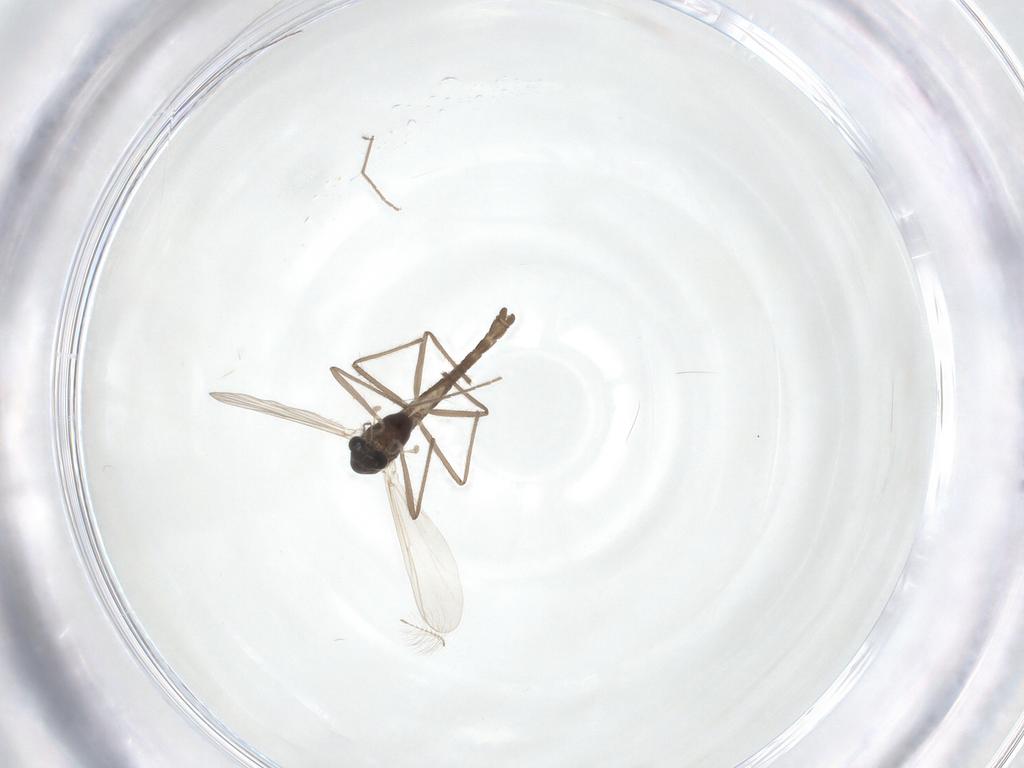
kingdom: Animalia
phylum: Arthropoda
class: Insecta
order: Diptera
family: Chironomidae
